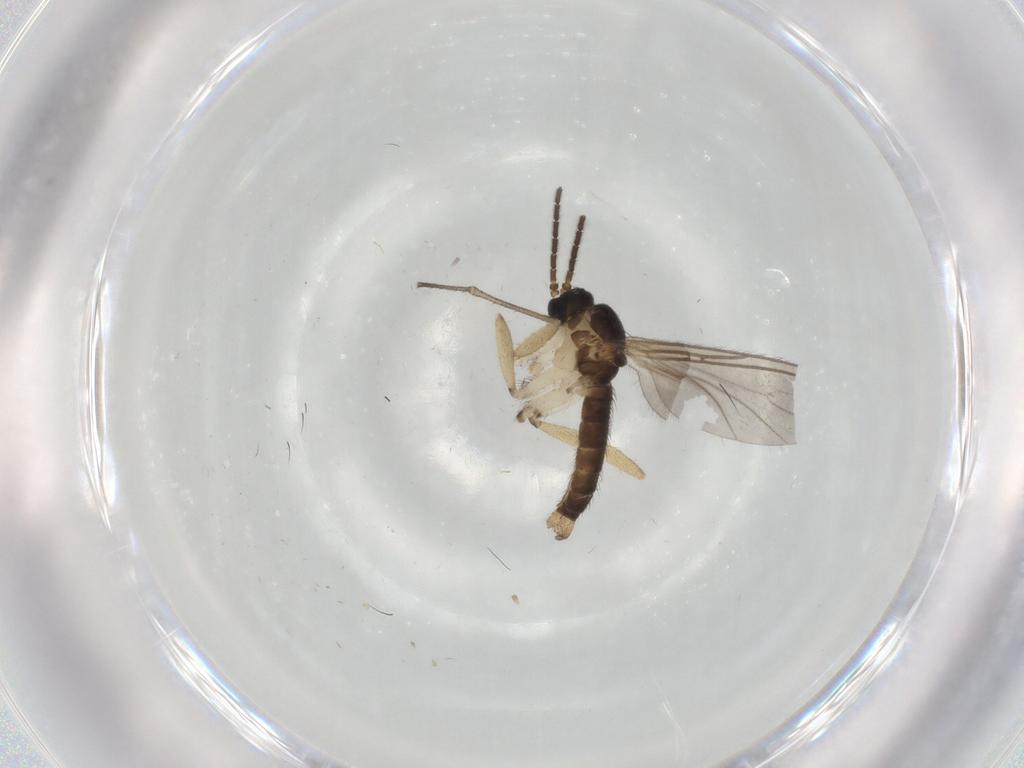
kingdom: Animalia
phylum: Arthropoda
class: Insecta
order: Diptera
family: Sciaridae
